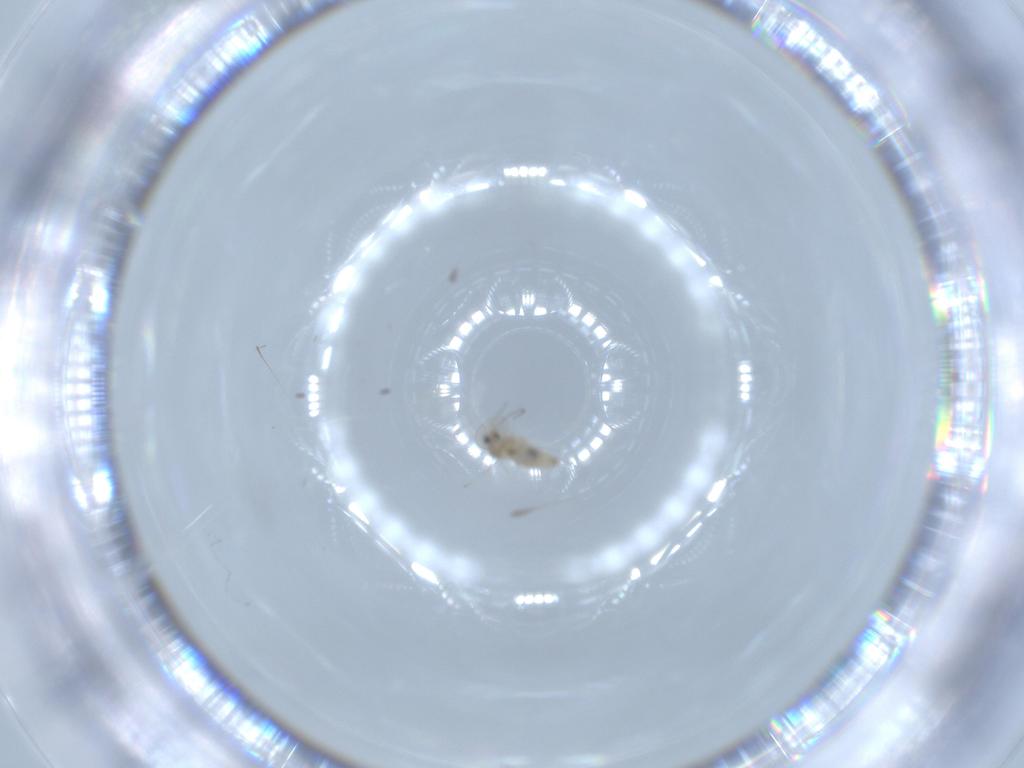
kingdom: Animalia
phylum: Arthropoda
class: Insecta
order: Diptera
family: Cecidomyiidae
